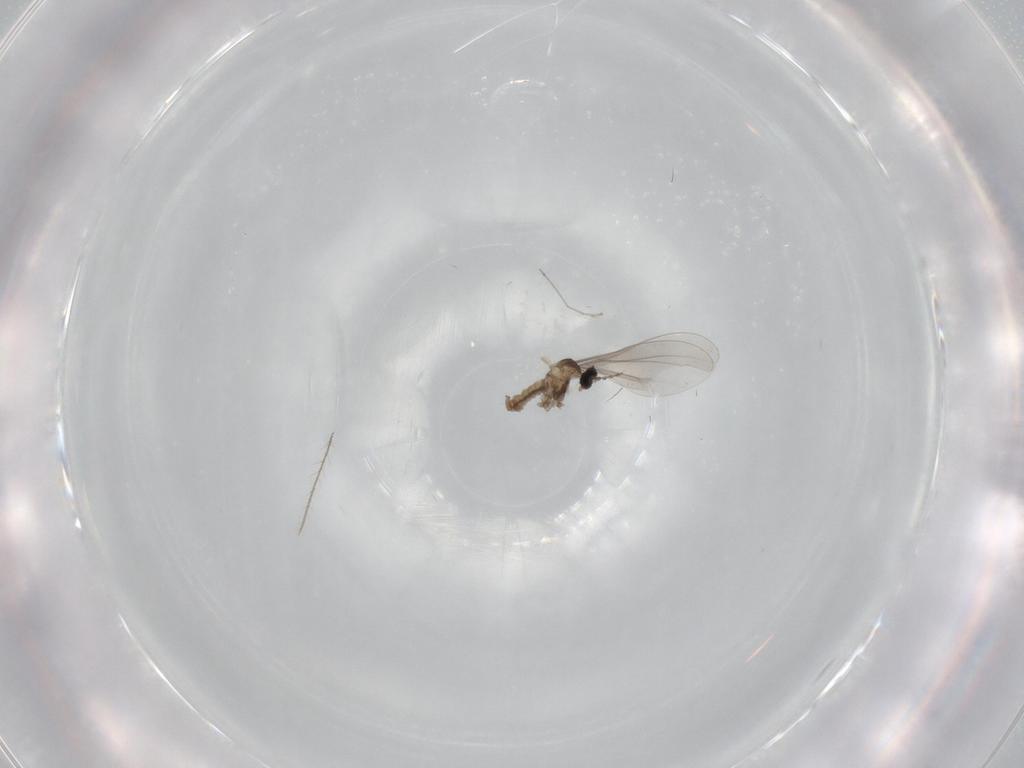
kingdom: Animalia
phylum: Arthropoda
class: Insecta
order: Diptera
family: Cecidomyiidae
